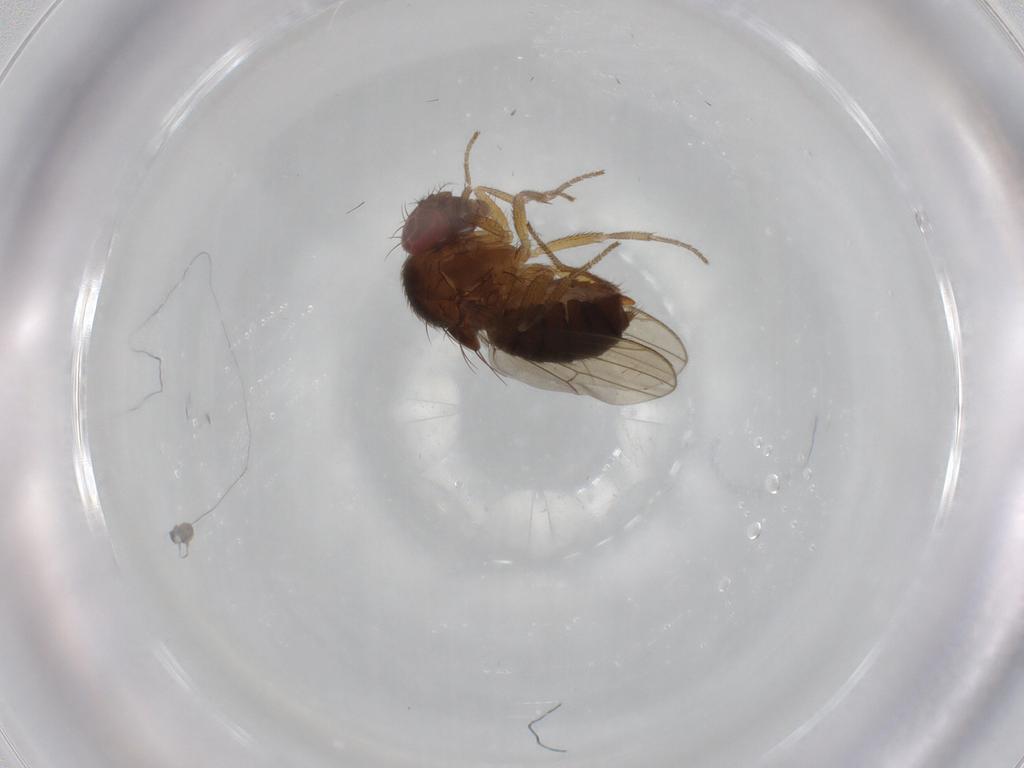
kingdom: Animalia
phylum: Arthropoda
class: Insecta
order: Diptera
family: Drosophilidae
